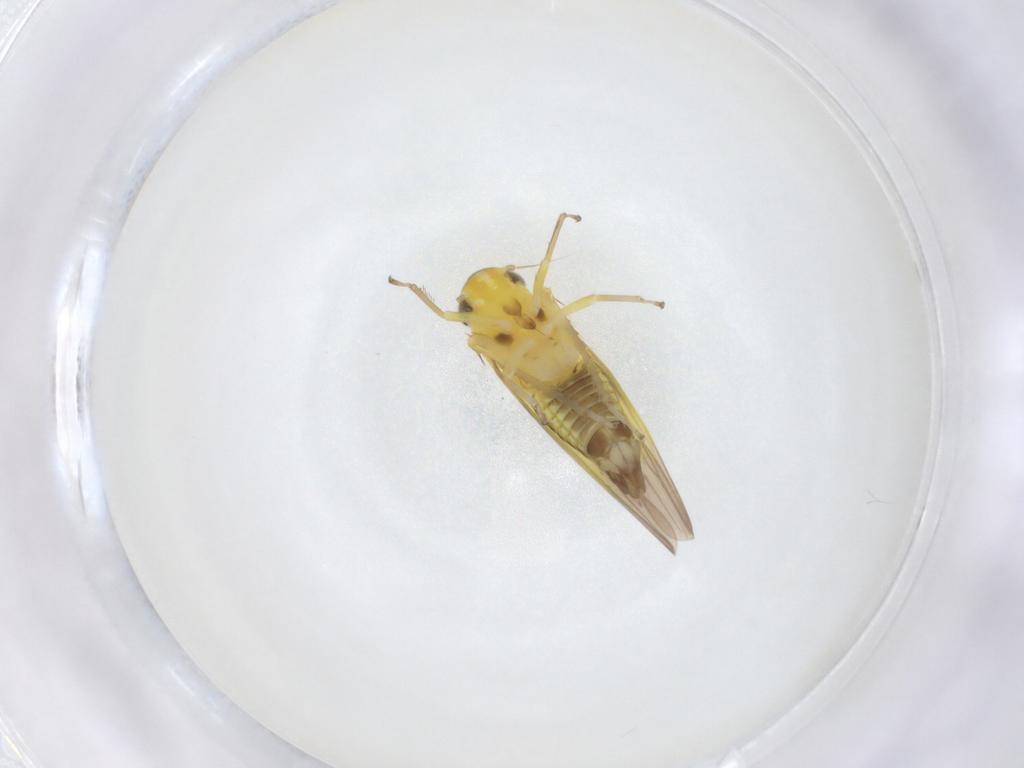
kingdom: Animalia
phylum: Arthropoda
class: Insecta
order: Hemiptera
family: Cicadellidae
